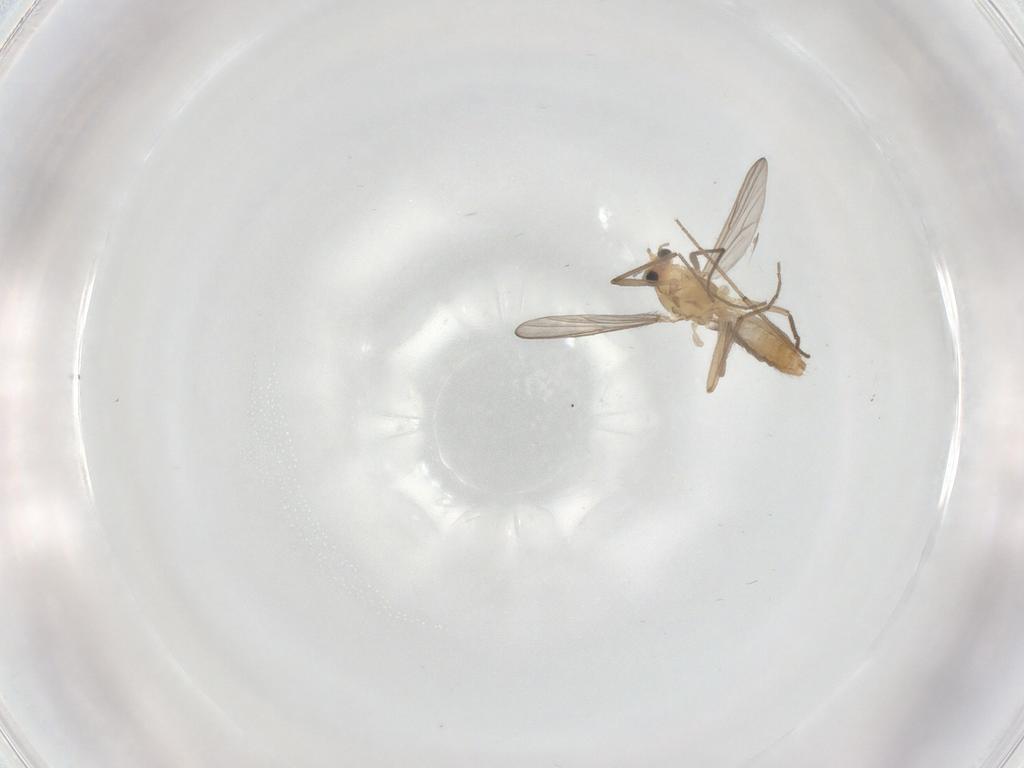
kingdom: Animalia
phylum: Arthropoda
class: Insecta
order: Diptera
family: Chironomidae
